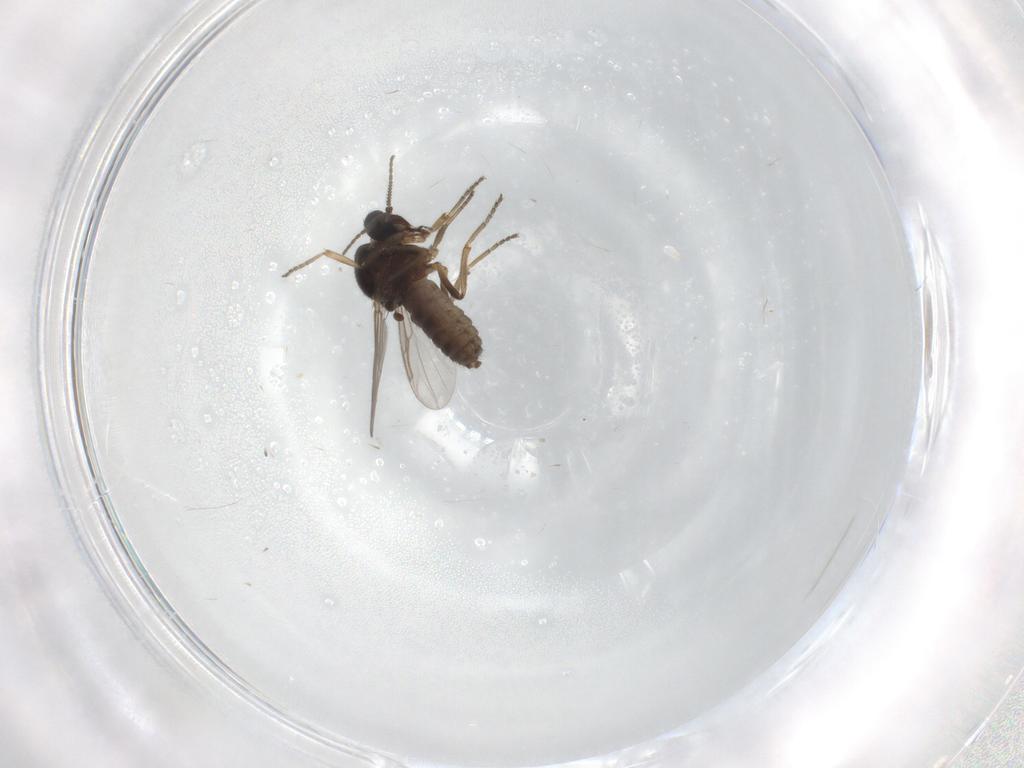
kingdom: Animalia
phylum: Arthropoda
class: Insecta
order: Diptera
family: Ceratopogonidae
